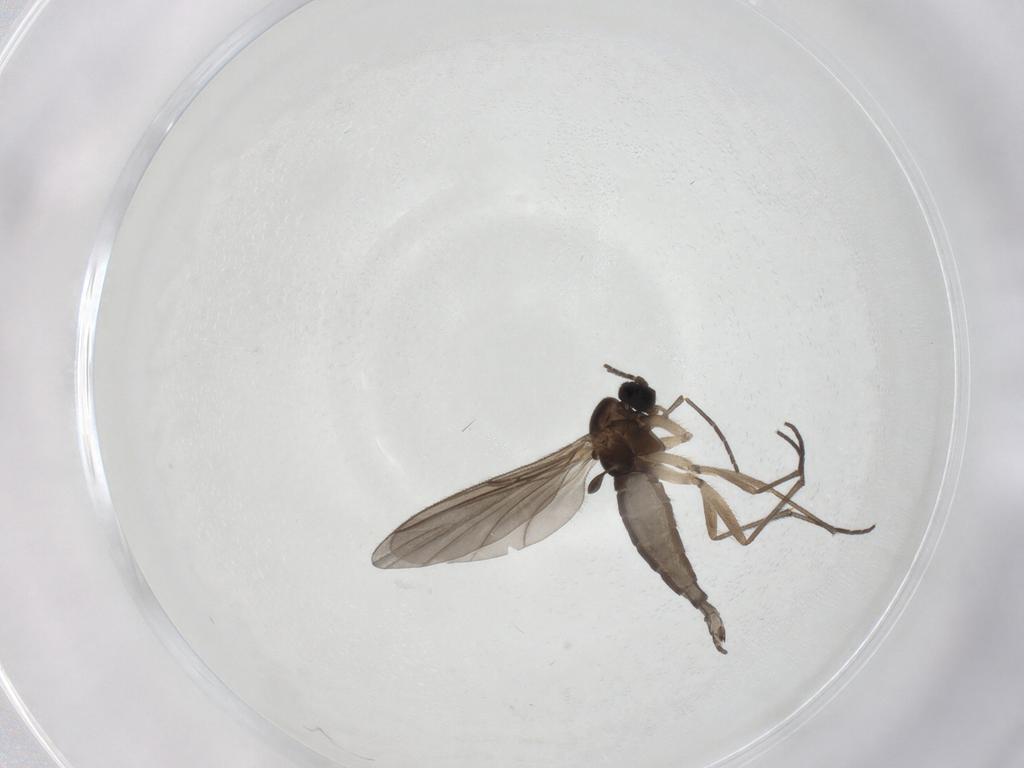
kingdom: Animalia
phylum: Arthropoda
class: Insecta
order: Diptera
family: Sciaridae
